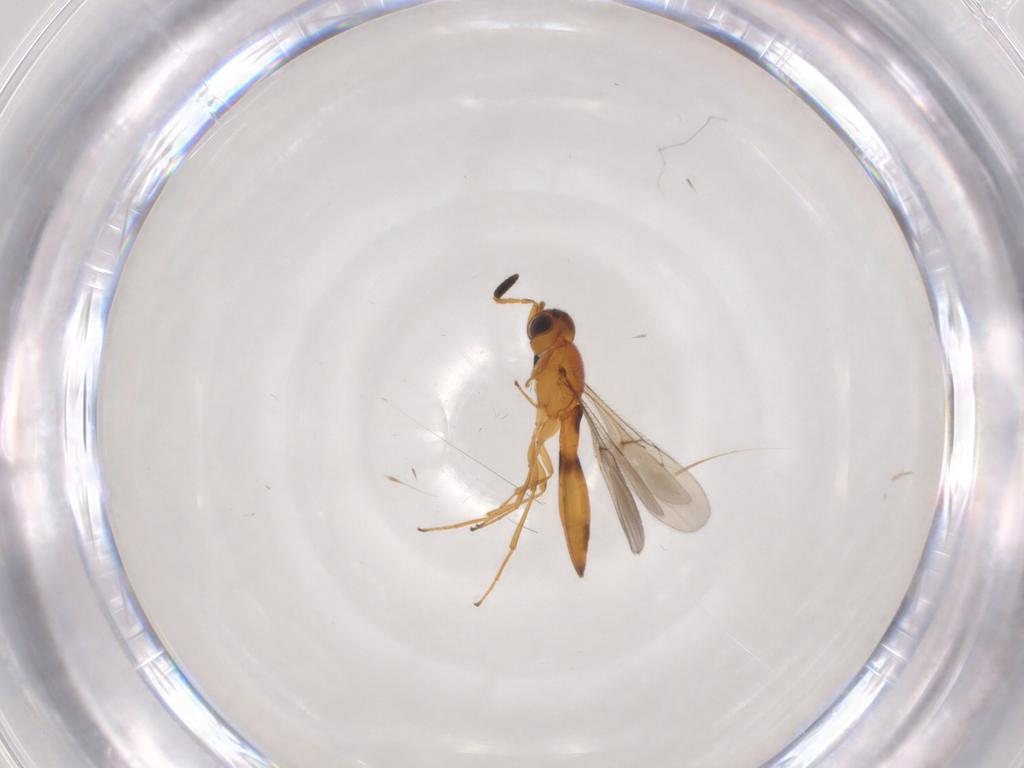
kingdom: Animalia
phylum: Arthropoda
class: Insecta
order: Hymenoptera
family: Scelionidae
